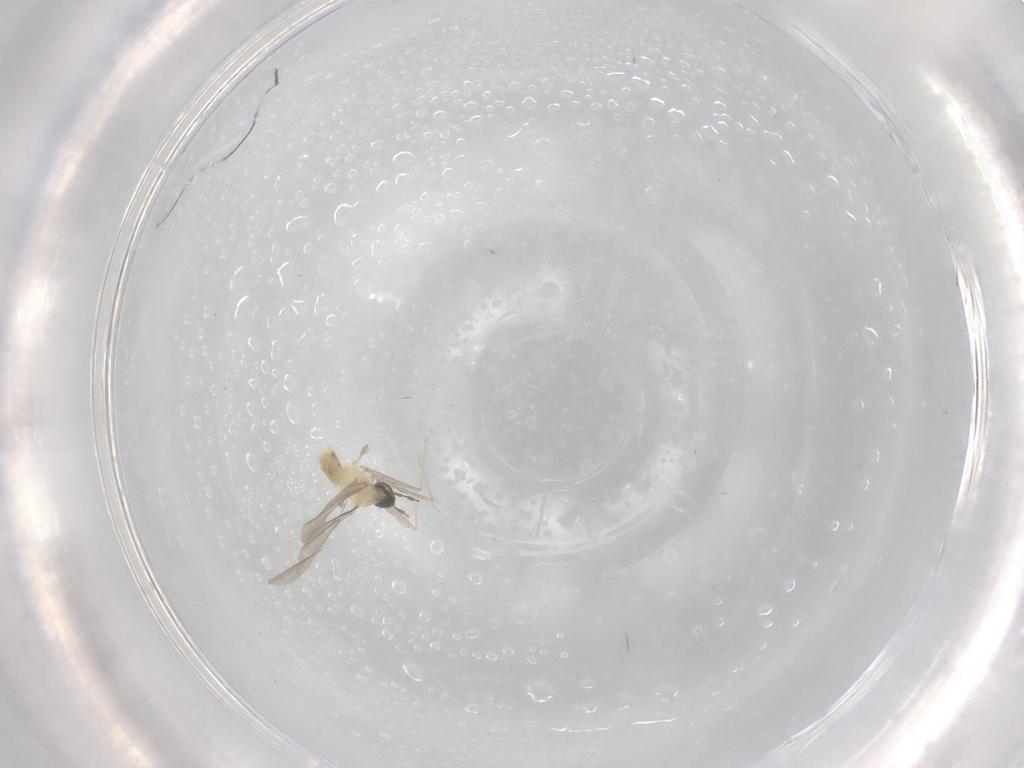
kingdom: Animalia
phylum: Arthropoda
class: Insecta
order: Diptera
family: Cecidomyiidae
